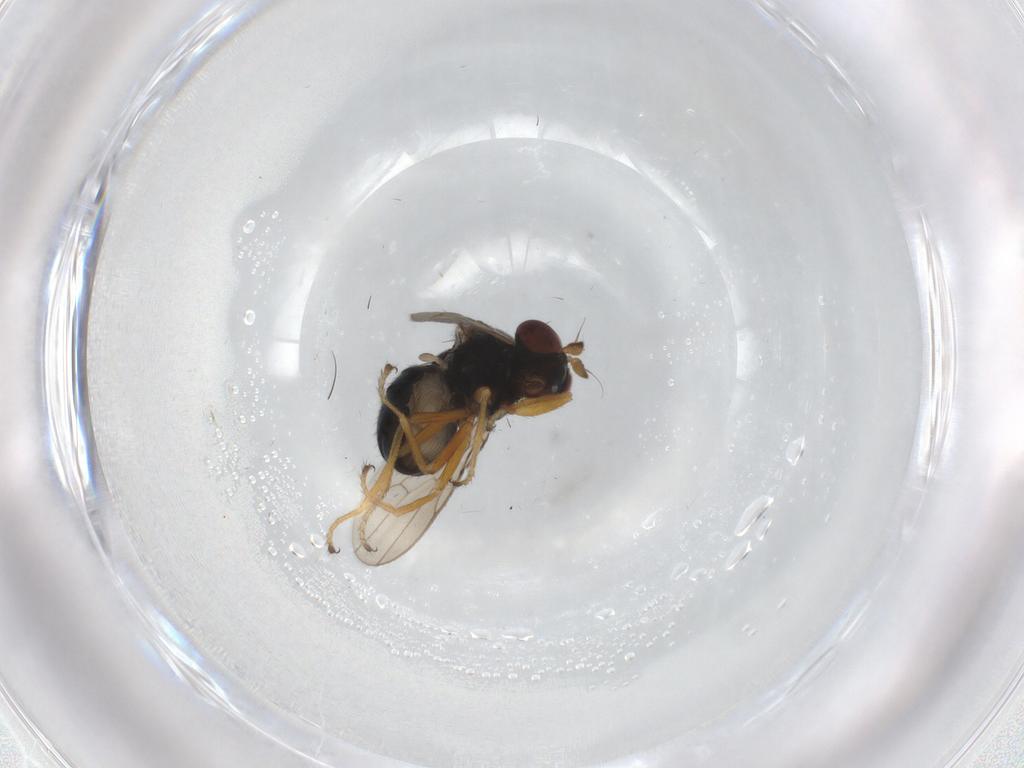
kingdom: Animalia
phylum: Arthropoda
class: Insecta
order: Diptera
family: Ephydridae
